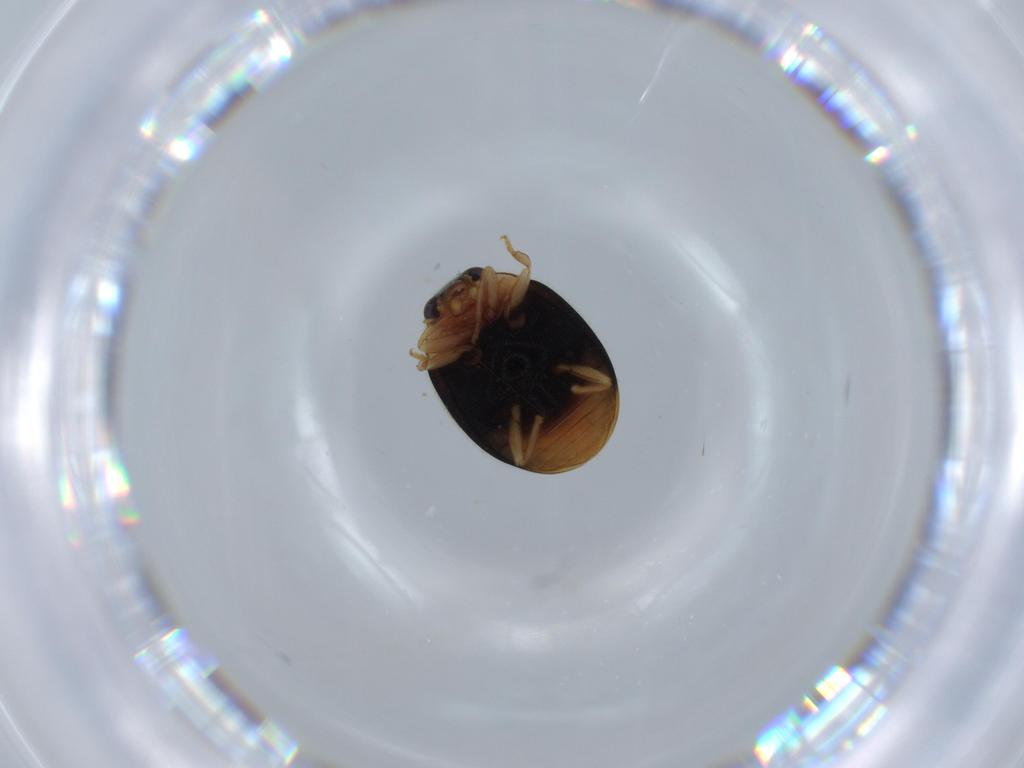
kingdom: Animalia
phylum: Arthropoda
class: Insecta
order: Coleoptera
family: Coccinellidae
